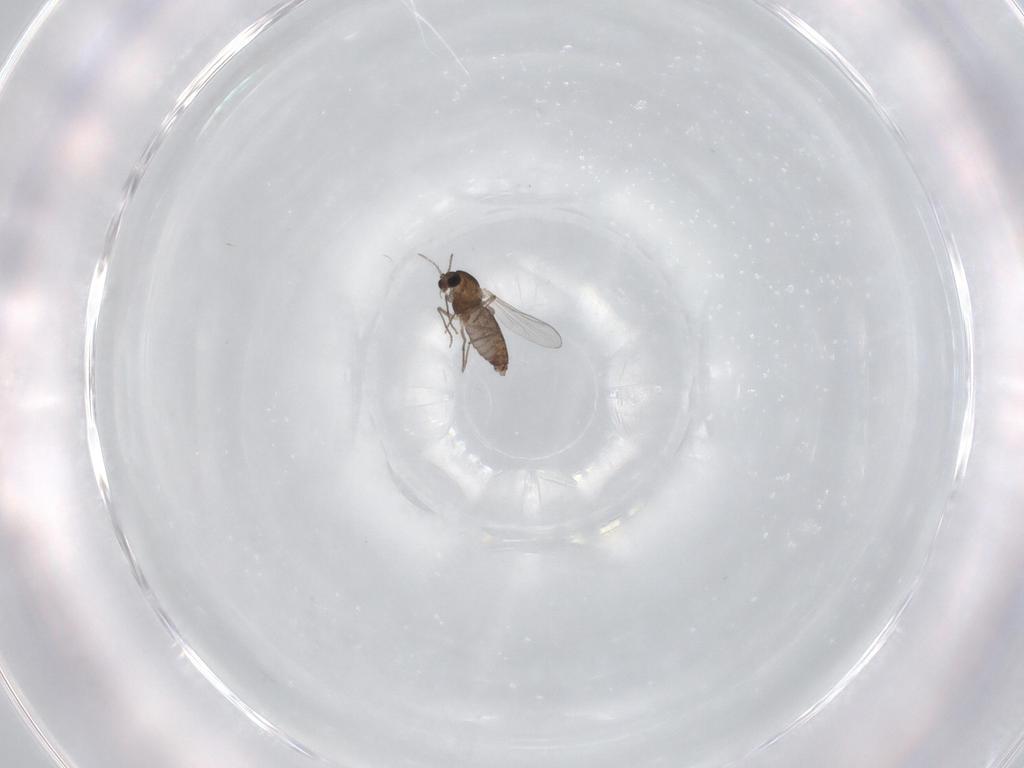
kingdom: Animalia
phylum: Arthropoda
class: Insecta
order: Diptera
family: Chironomidae
